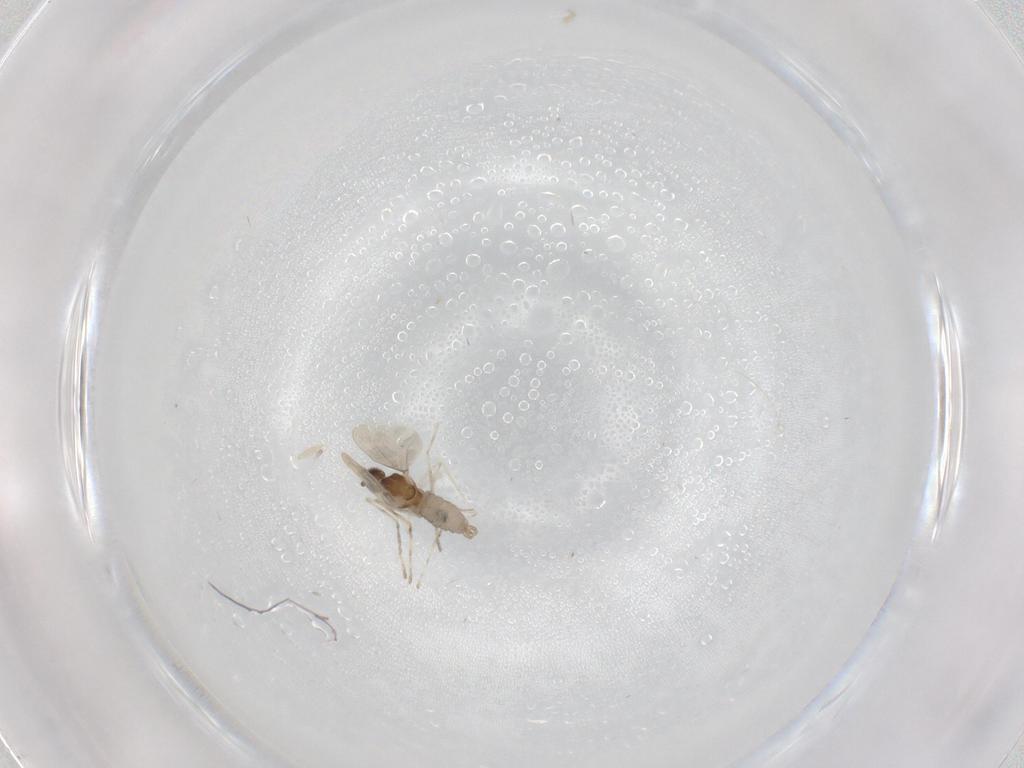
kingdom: Animalia
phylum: Arthropoda
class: Insecta
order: Diptera
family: Cecidomyiidae
